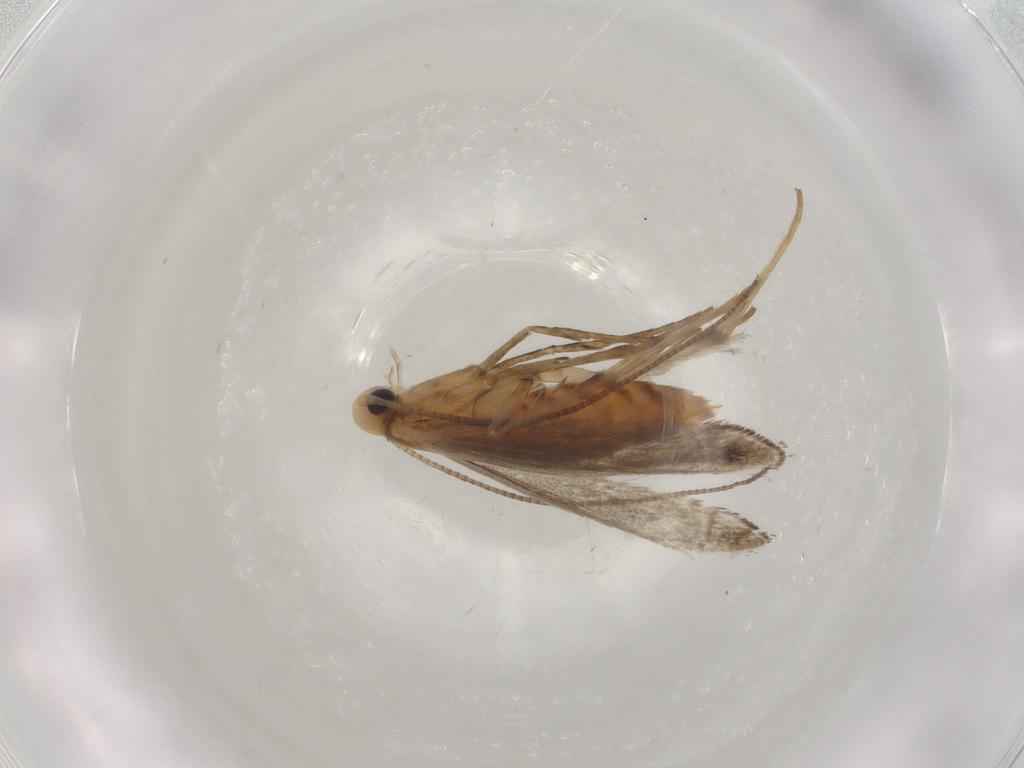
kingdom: Animalia
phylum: Arthropoda
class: Insecta
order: Lepidoptera
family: Gracillariidae
